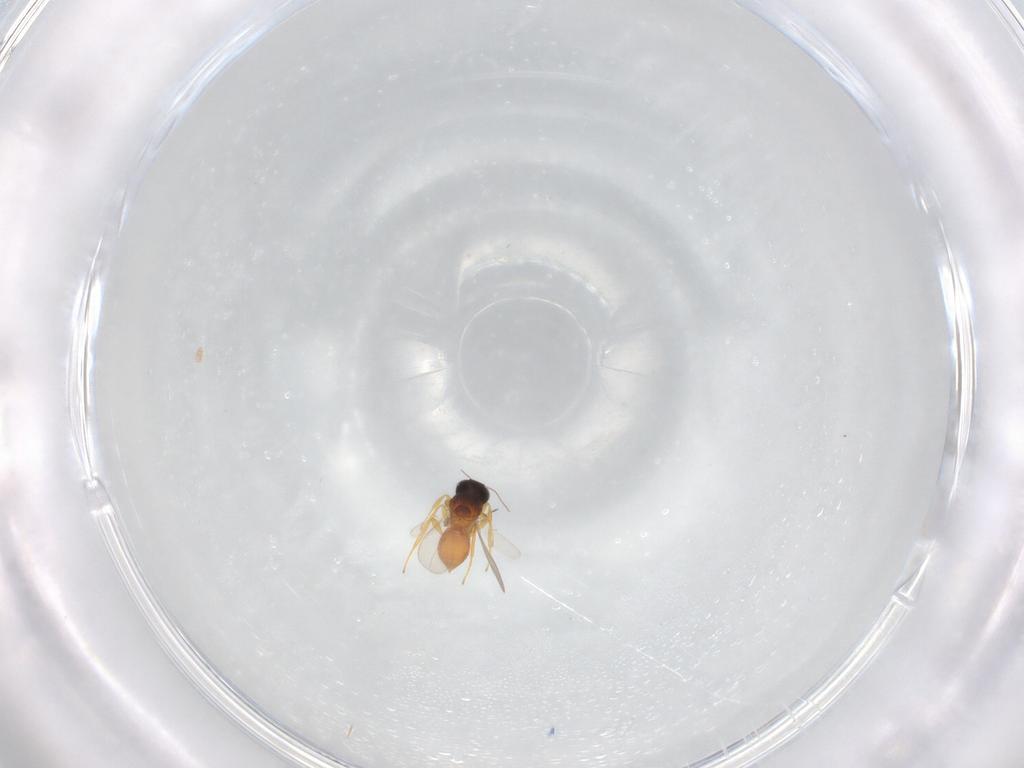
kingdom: Animalia
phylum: Arthropoda
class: Insecta
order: Hymenoptera
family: Platygastridae
